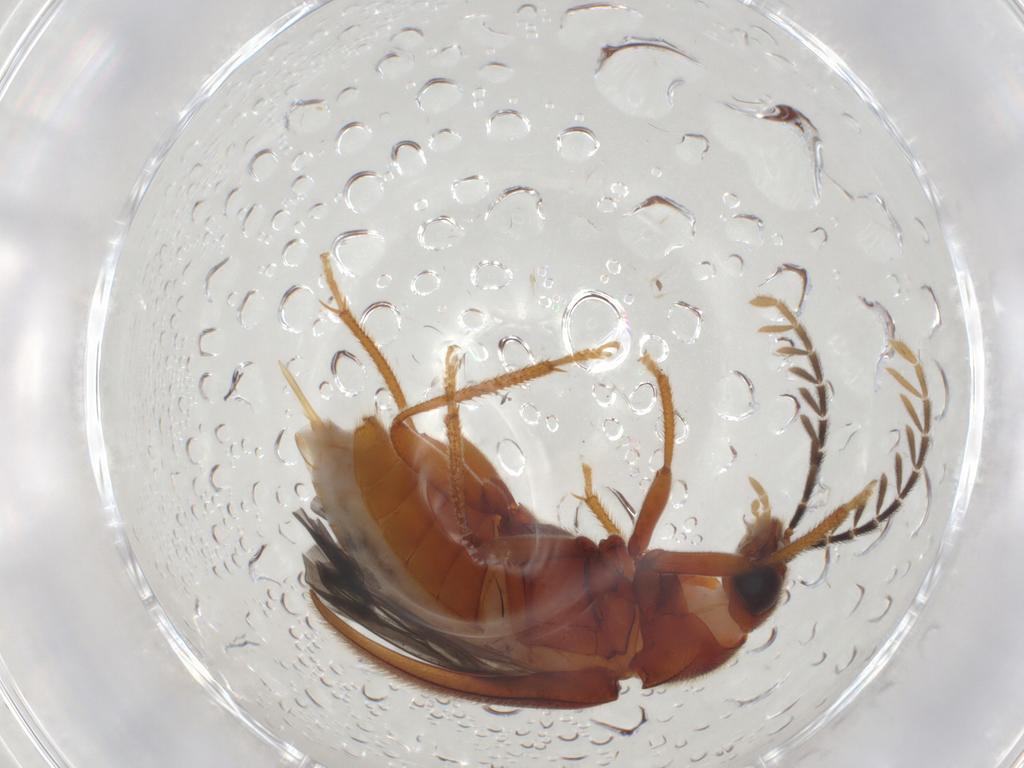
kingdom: Animalia
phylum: Arthropoda
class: Insecta
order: Coleoptera
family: Ptilodactylidae
